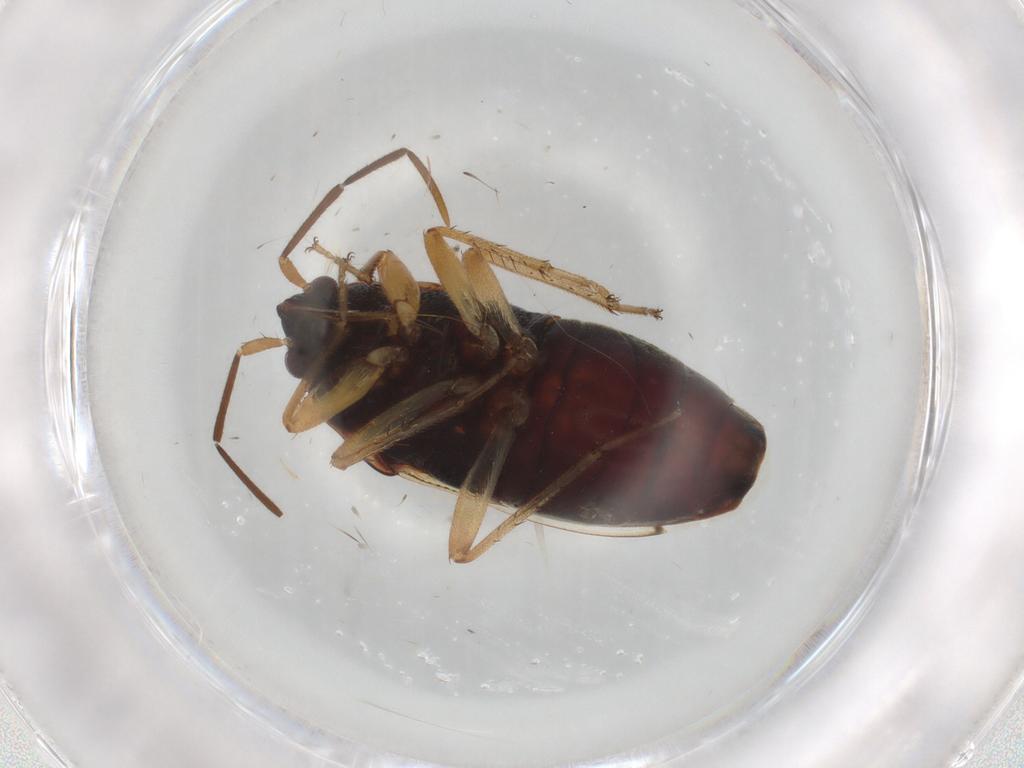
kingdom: Animalia
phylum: Arthropoda
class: Insecta
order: Hemiptera
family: Rhyparochromidae
